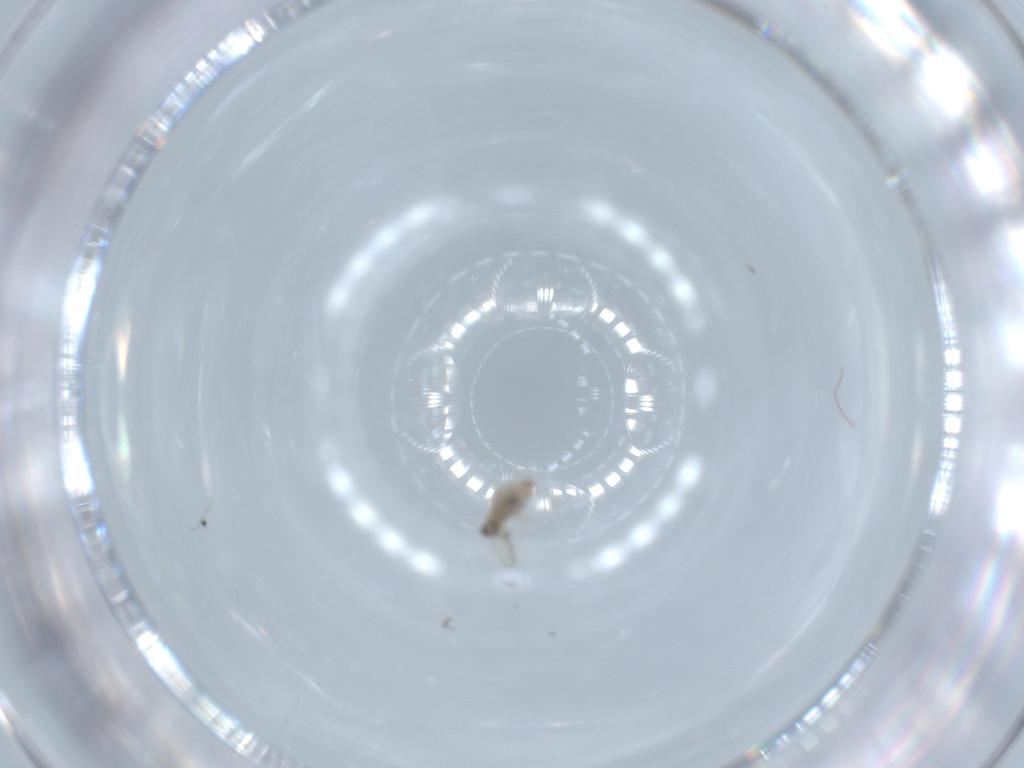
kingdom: Animalia
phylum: Arthropoda
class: Insecta
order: Diptera
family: Cecidomyiidae
